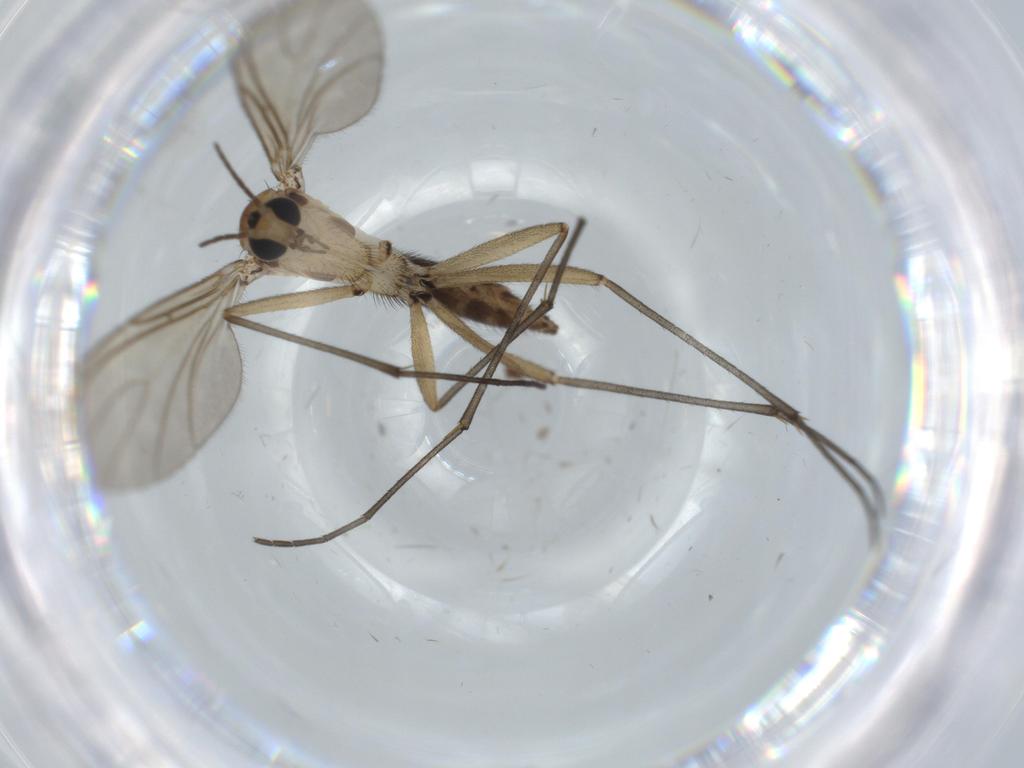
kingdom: Animalia
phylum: Arthropoda
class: Insecta
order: Diptera
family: Sciaridae
